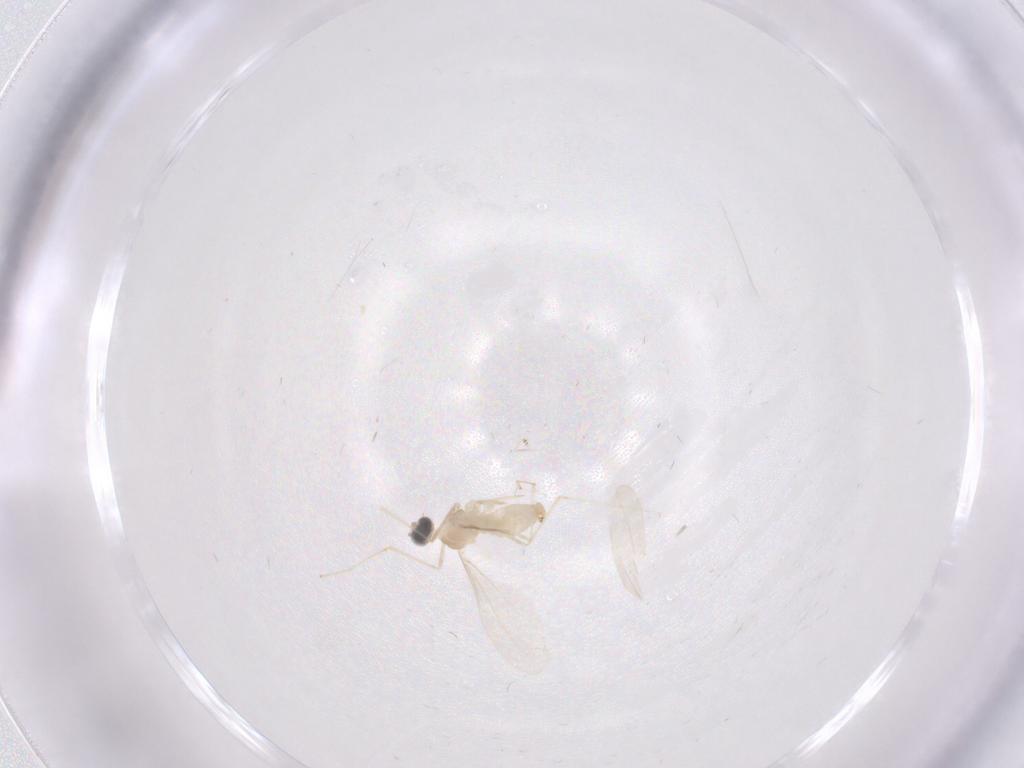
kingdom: Animalia
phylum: Arthropoda
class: Insecta
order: Diptera
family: Cecidomyiidae
